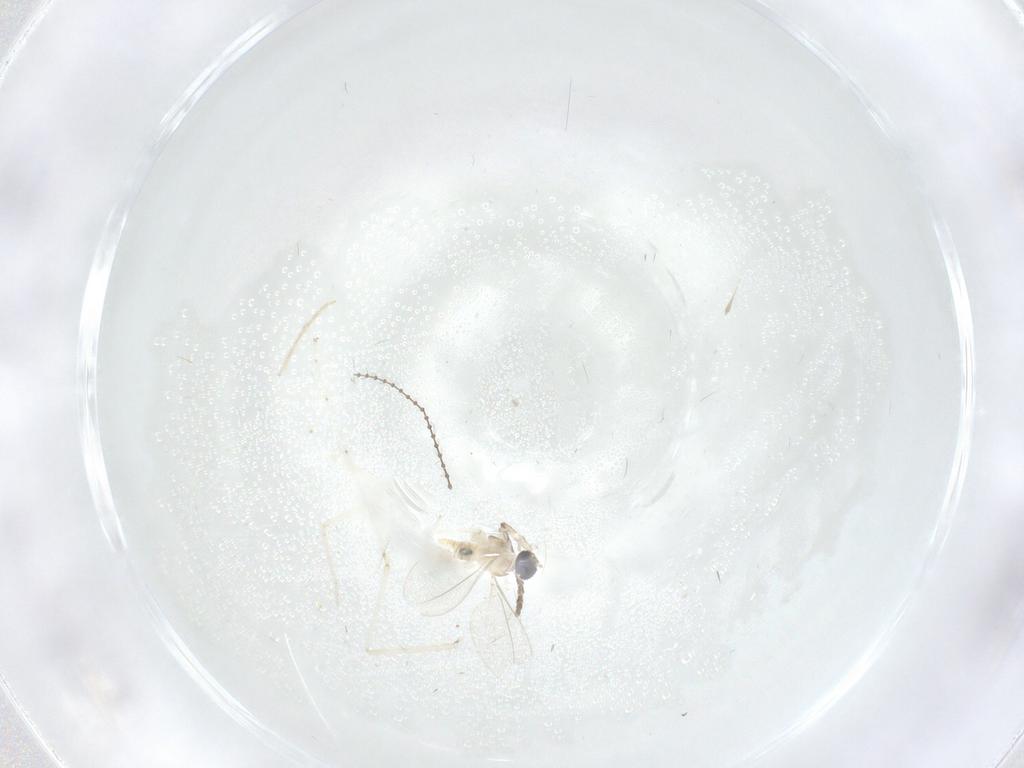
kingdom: Animalia
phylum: Arthropoda
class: Insecta
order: Diptera
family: Chironomidae
